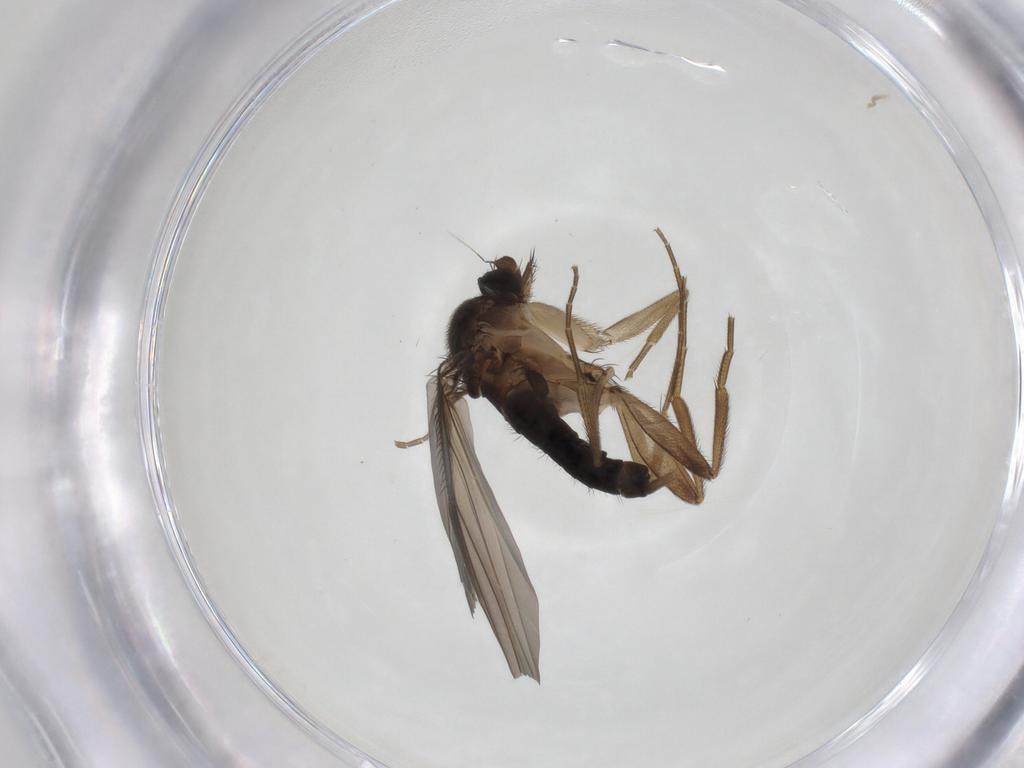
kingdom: Animalia
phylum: Arthropoda
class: Insecta
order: Diptera
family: Phoridae
